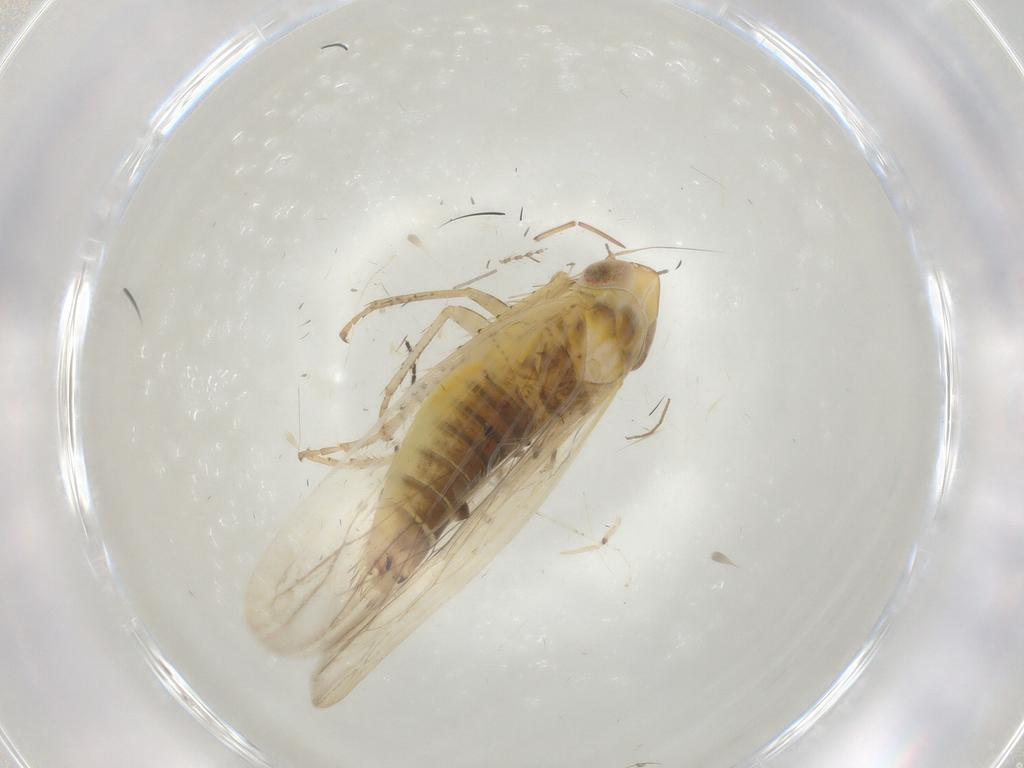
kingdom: Animalia
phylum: Arthropoda
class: Insecta
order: Hemiptera
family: Cicadellidae
